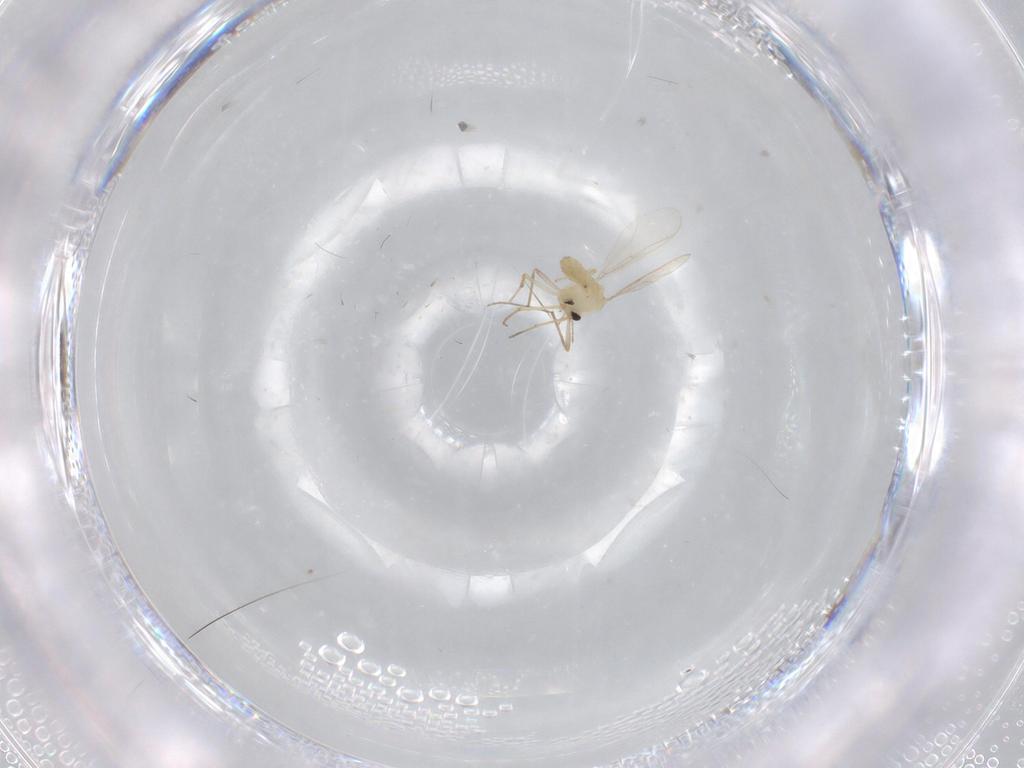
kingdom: Animalia
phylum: Arthropoda
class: Insecta
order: Diptera
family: Chironomidae
